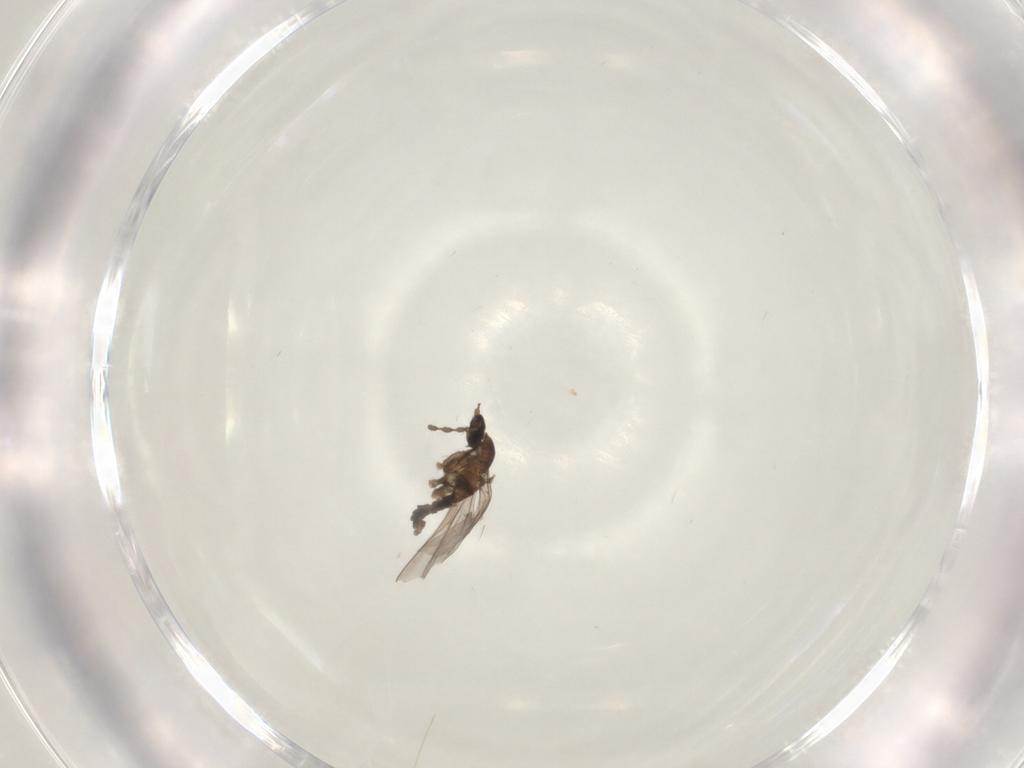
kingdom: Animalia
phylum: Arthropoda
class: Insecta
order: Diptera
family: Cecidomyiidae
